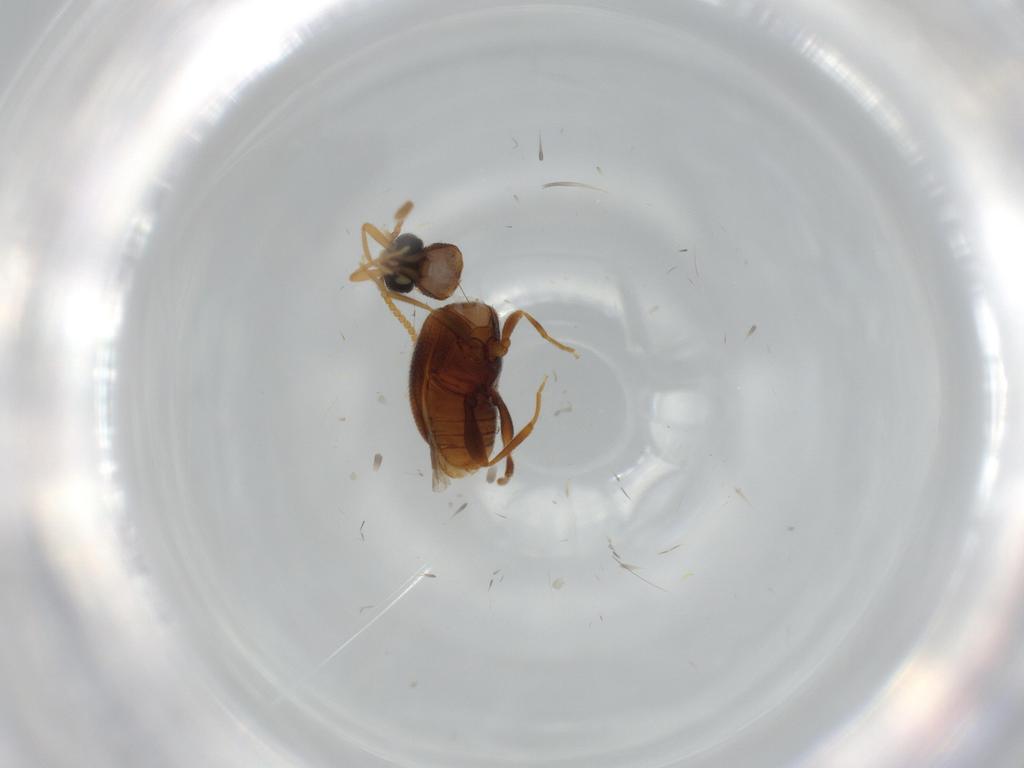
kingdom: Animalia
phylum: Arthropoda
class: Insecta
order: Coleoptera
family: Aderidae
